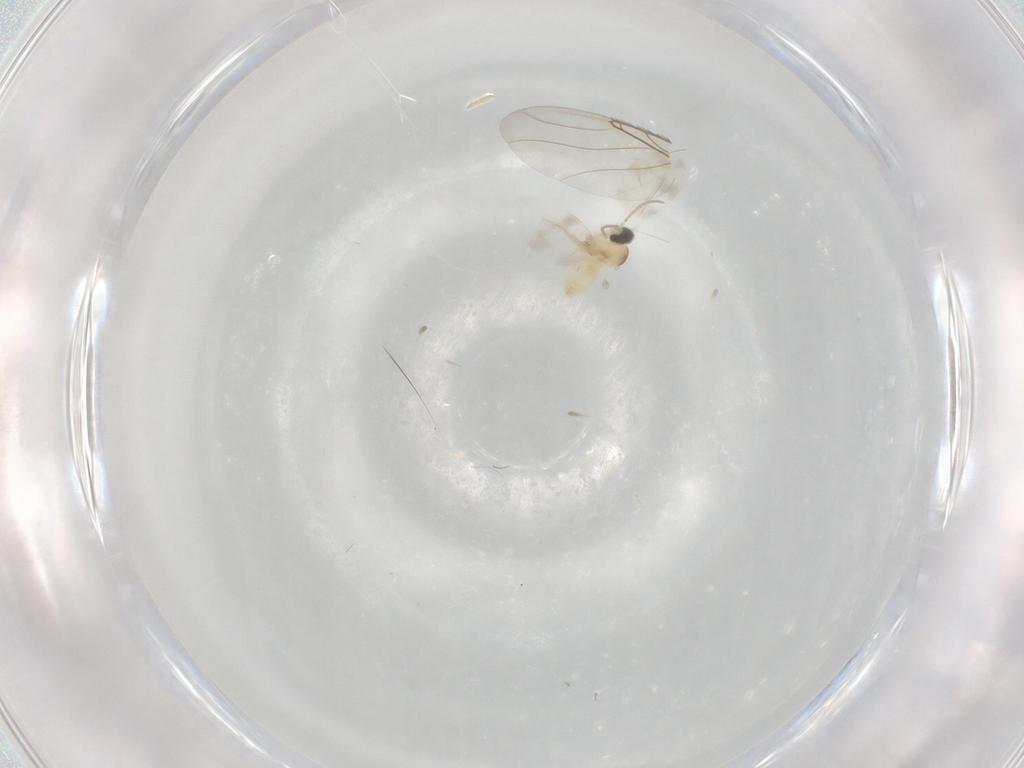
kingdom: Animalia
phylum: Arthropoda
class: Insecta
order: Diptera
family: Cecidomyiidae
